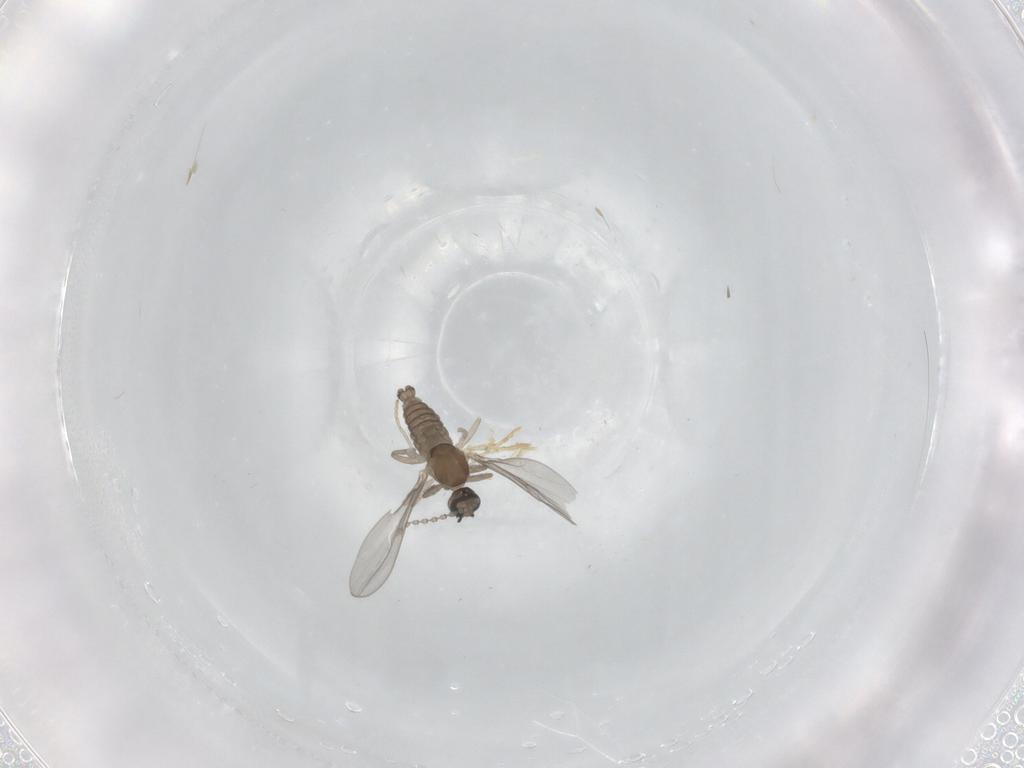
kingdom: Animalia
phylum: Arthropoda
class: Insecta
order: Diptera
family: Cecidomyiidae
